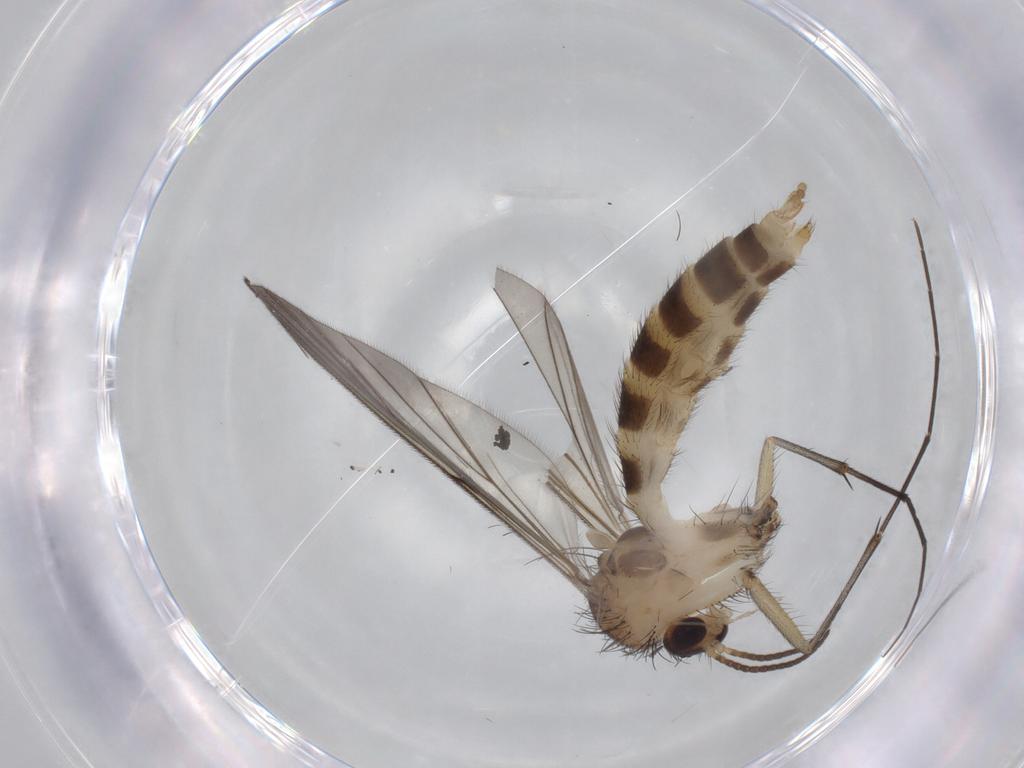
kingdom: Animalia
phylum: Arthropoda
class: Insecta
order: Diptera
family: Mycetophilidae
